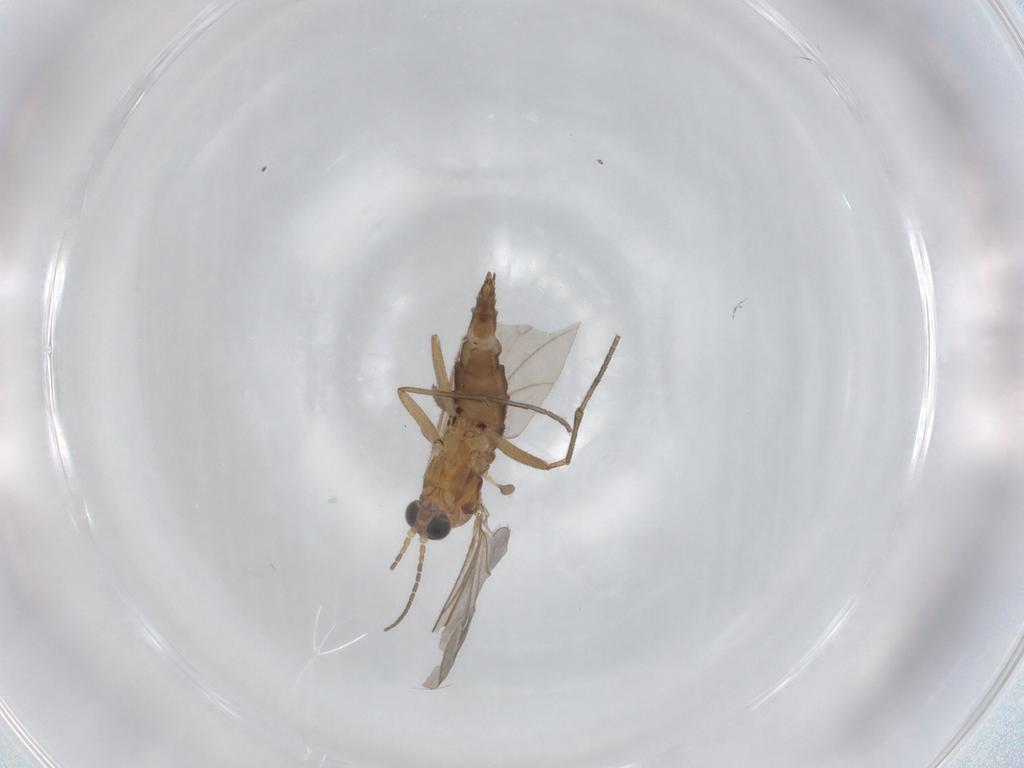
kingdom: Animalia
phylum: Arthropoda
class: Insecta
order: Diptera
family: Sciaridae
